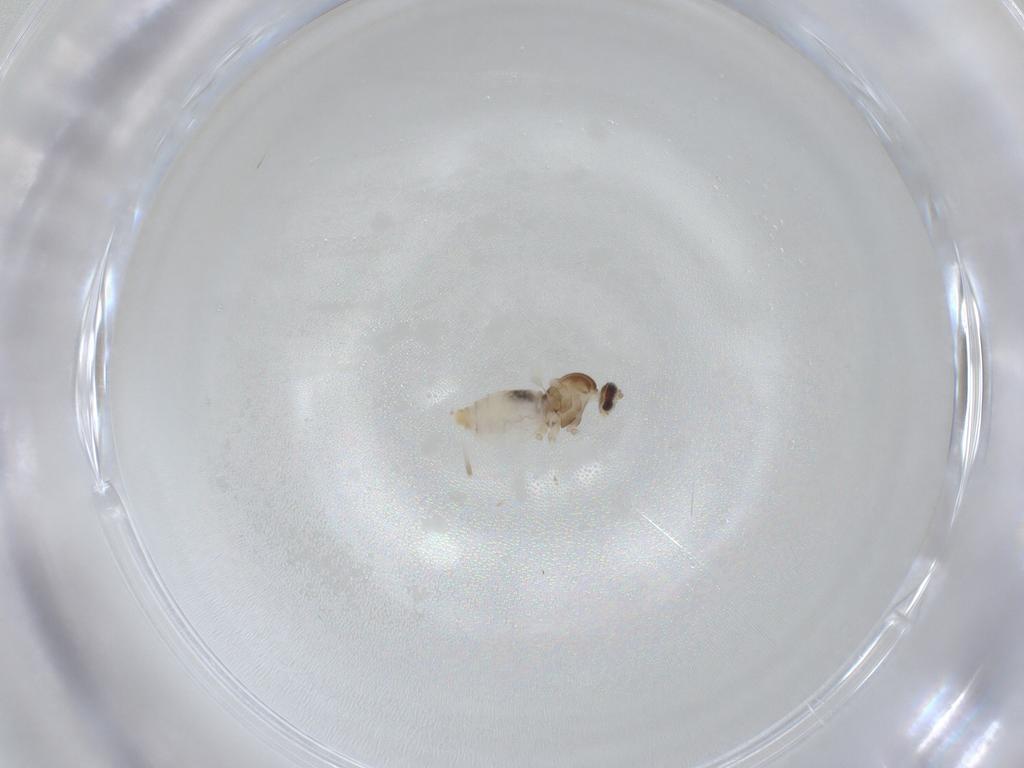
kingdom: Animalia
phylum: Arthropoda
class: Insecta
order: Diptera
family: Cecidomyiidae
